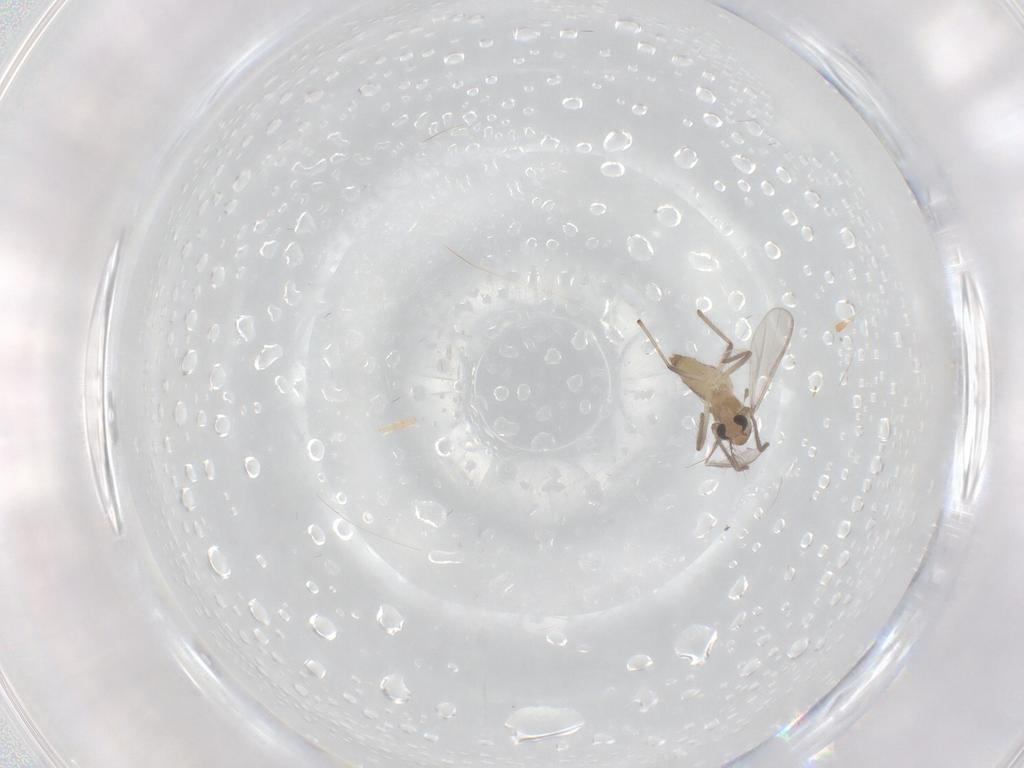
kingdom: Animalia
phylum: Arthropoda
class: Insecta
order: Diptera
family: Chironomidae
